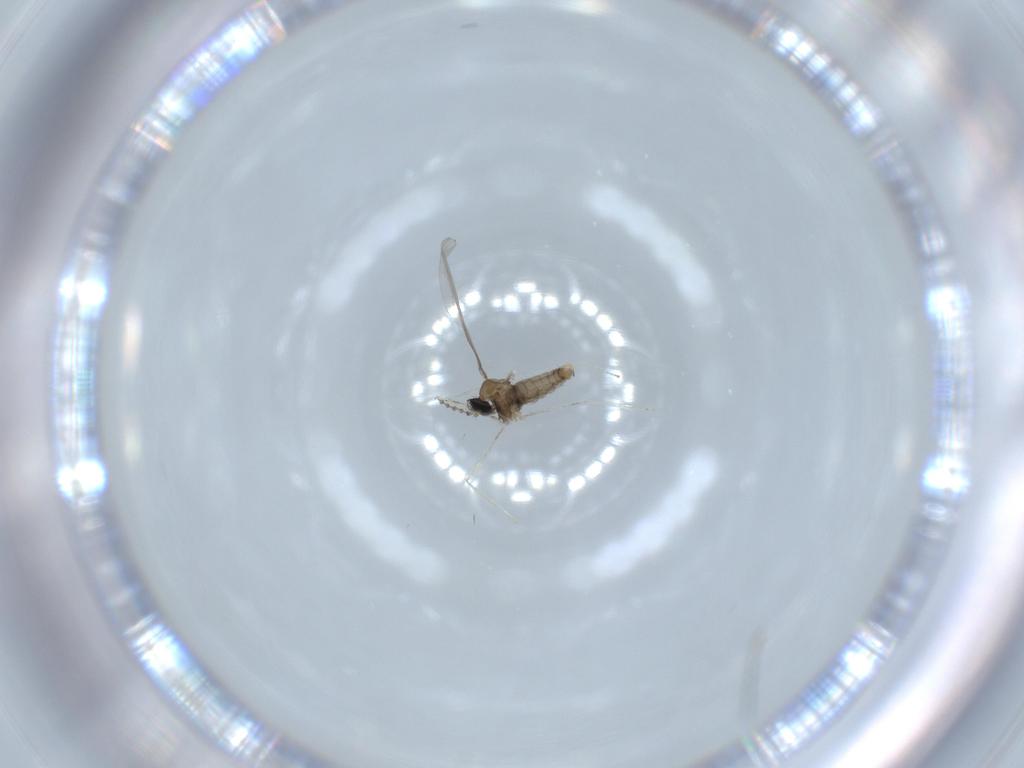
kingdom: Animalia
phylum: Arthropoda
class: Insecta
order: Diptera
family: Cecidomyiidae
